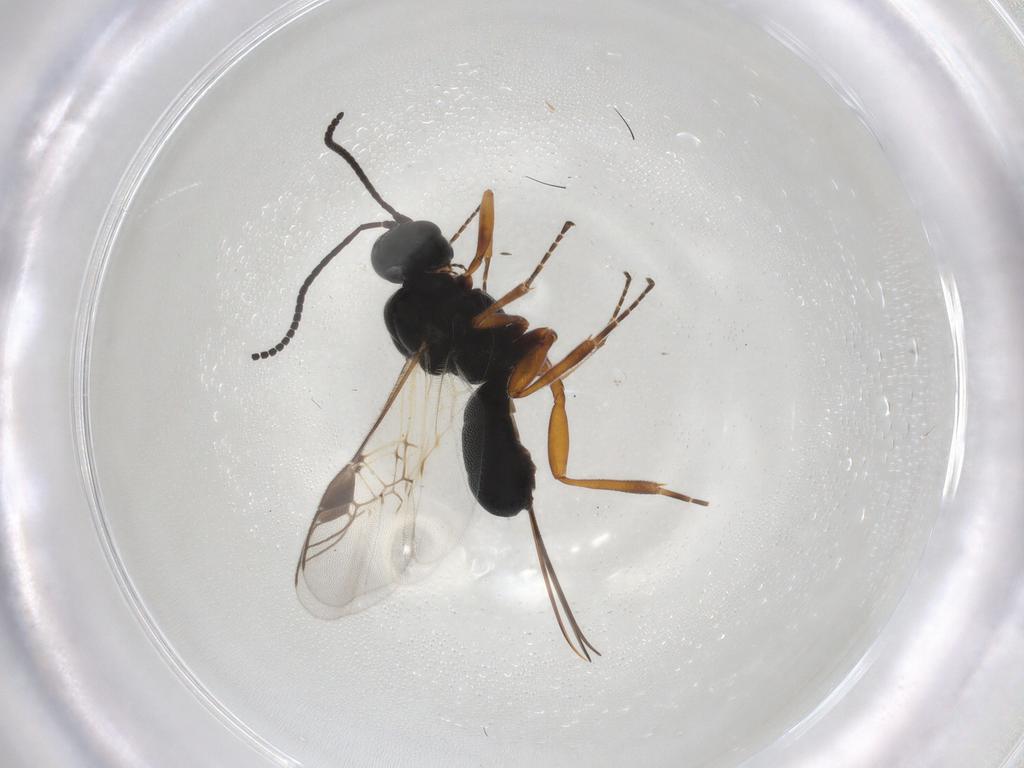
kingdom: Animalia
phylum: Arthropoda
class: Insecta
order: Hymenoptera
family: Braconidae
